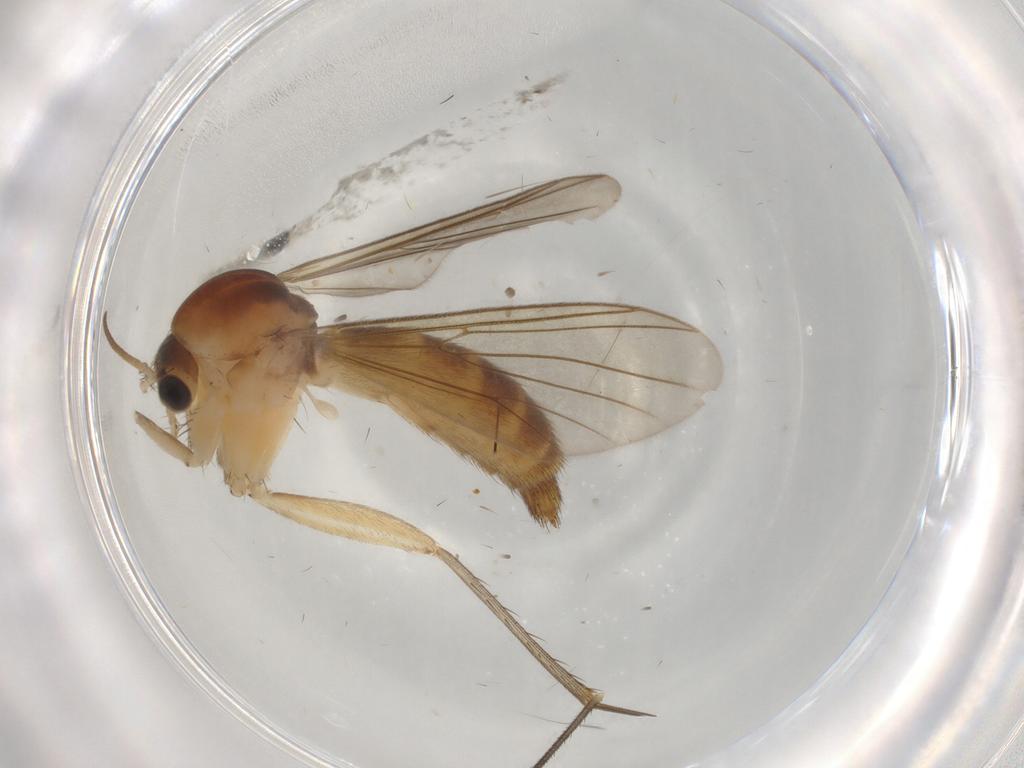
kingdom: Animalia
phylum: Arthropoda
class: Insecta
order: Diptera
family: Mycetophilidae
